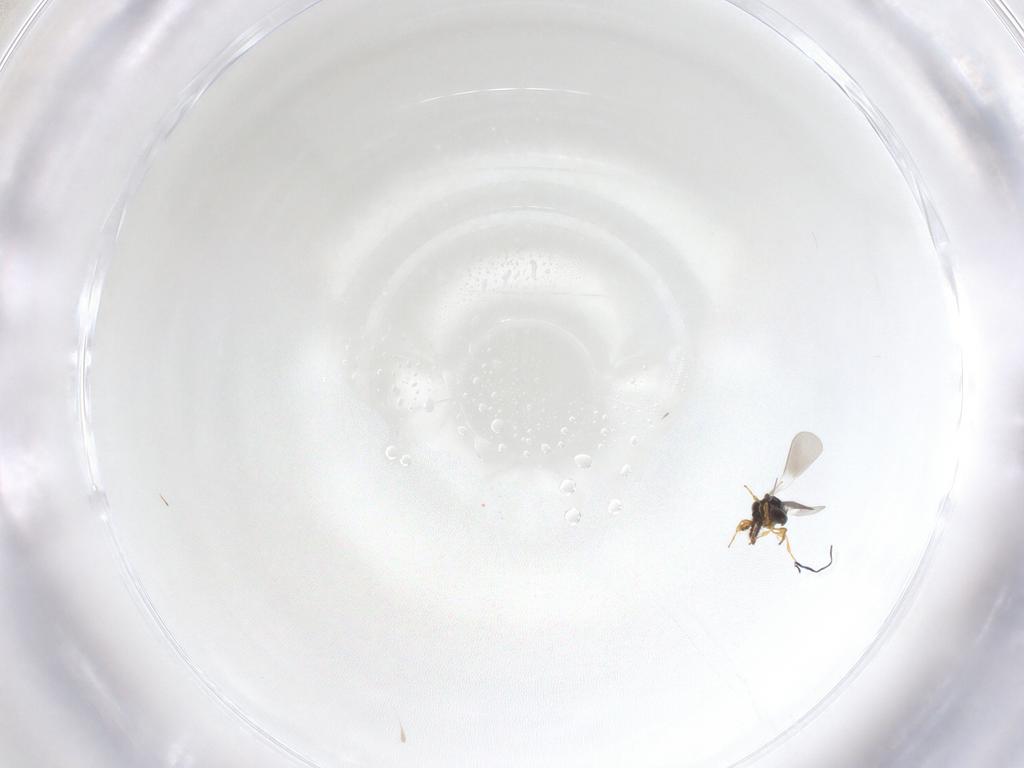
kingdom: Animalia
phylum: Arthropoda
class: Insecta
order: Hymenoptera
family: Platygastridae
